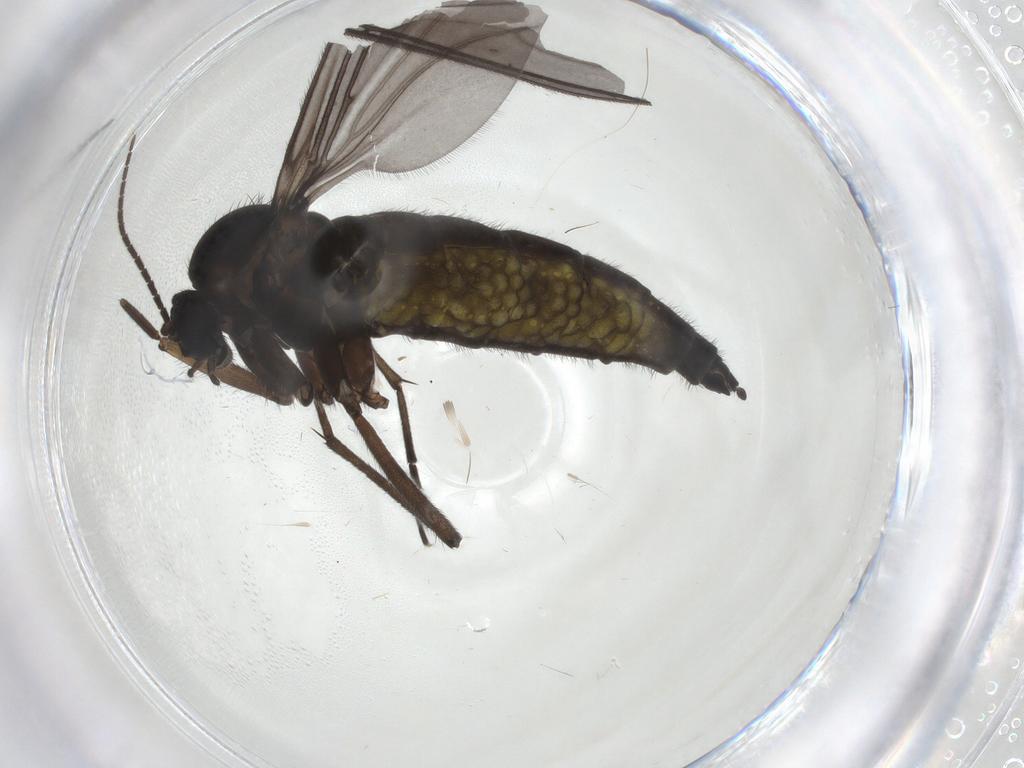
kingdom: Animalia
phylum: Arthropoda
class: Insecta
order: Diptera
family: Sciaridae
